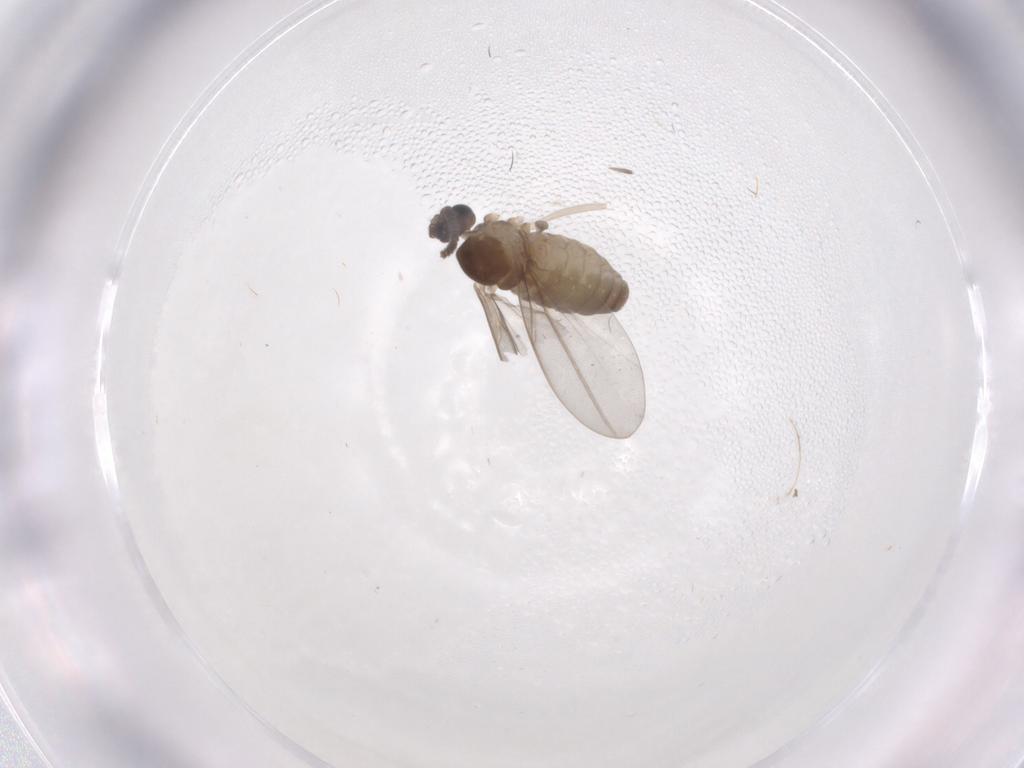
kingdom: Animalia
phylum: Arthropoda
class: Insecta
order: Diptera
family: Cecidomyiidae
